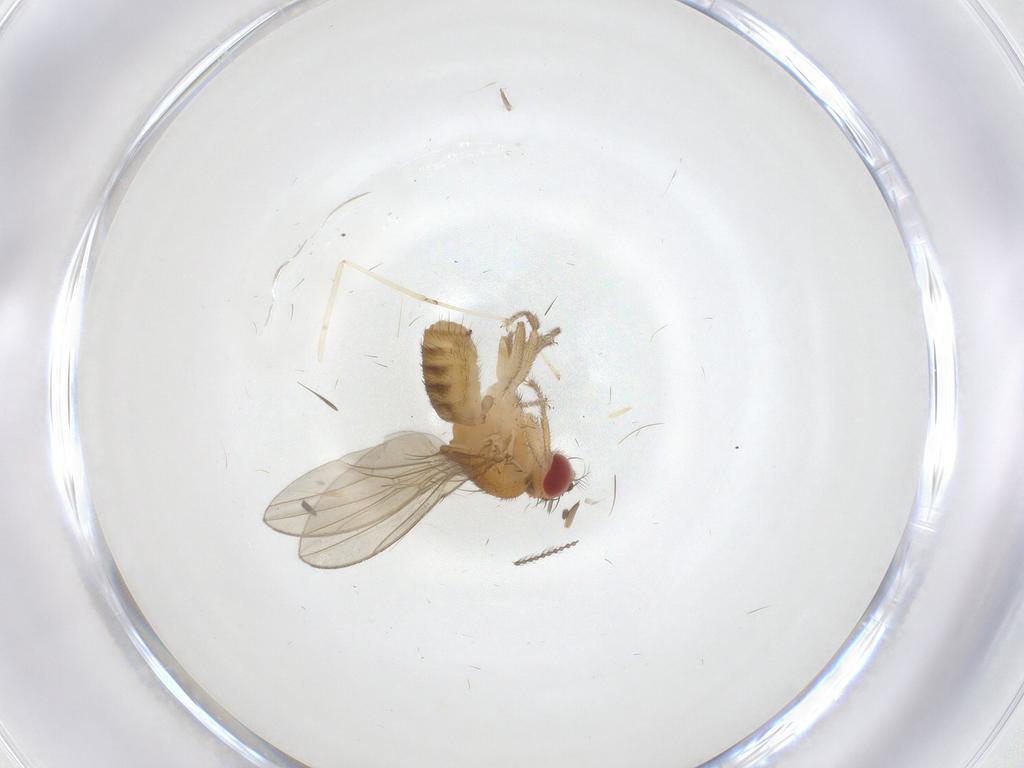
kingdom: Animalia
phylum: Arthropoda
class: Insecta
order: Diptera
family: Drosophilidae
